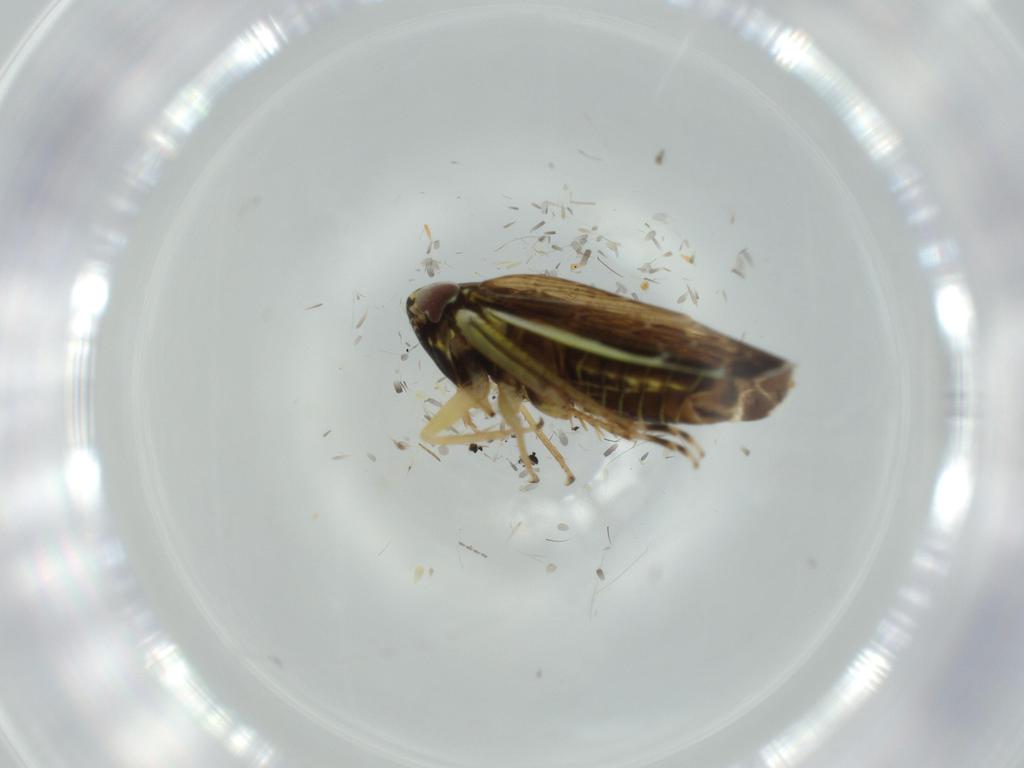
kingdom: Animalia
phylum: Arthropoda
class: Insecta
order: Hemiptera
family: Cicadellidae
